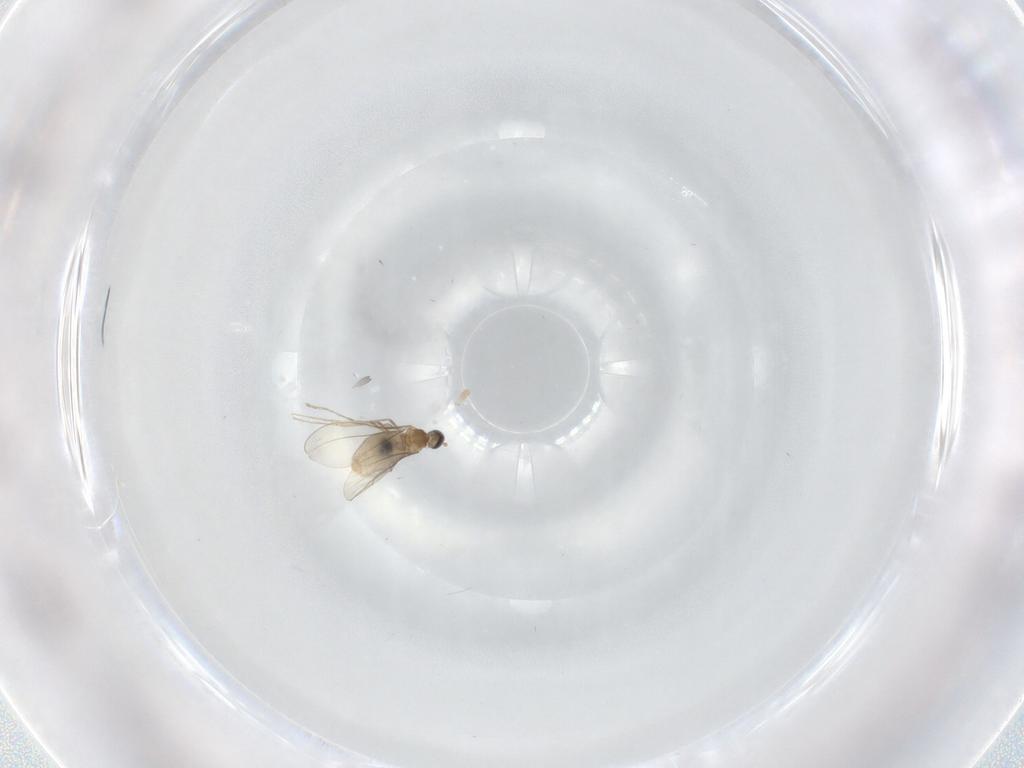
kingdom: Animalia
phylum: Arthropoda
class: Insecta
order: Diptera
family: Cecidomyiidae
